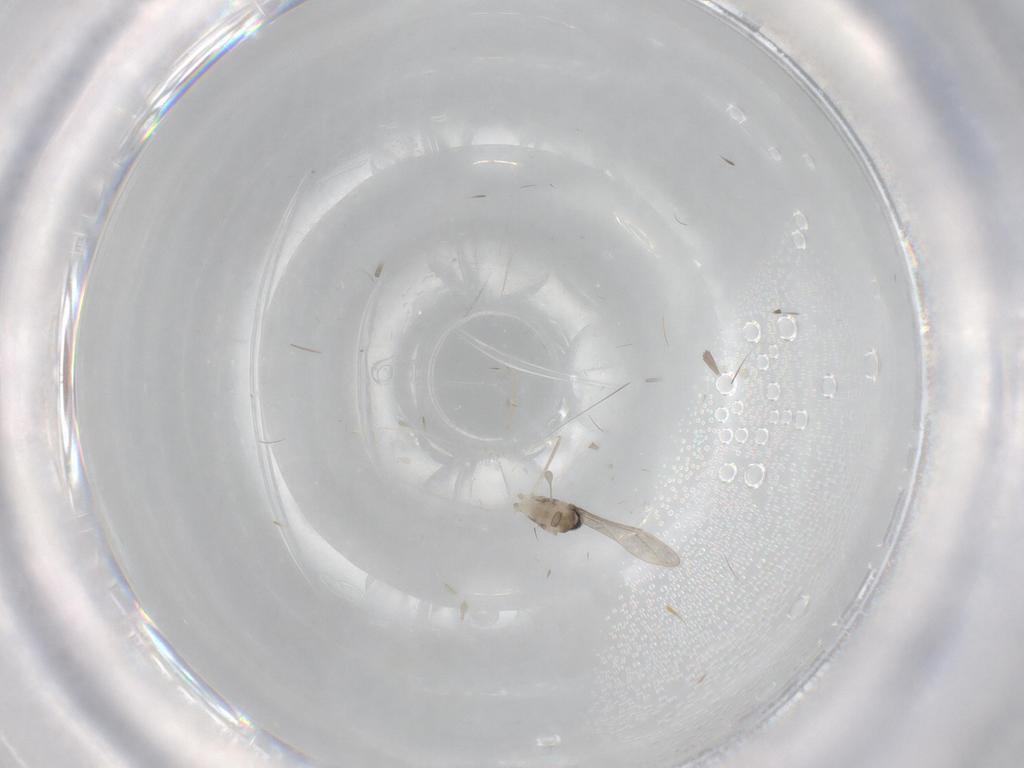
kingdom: Animalia
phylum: Arthropoda
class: Insecta
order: Diptera
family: Cecidomyiidae
